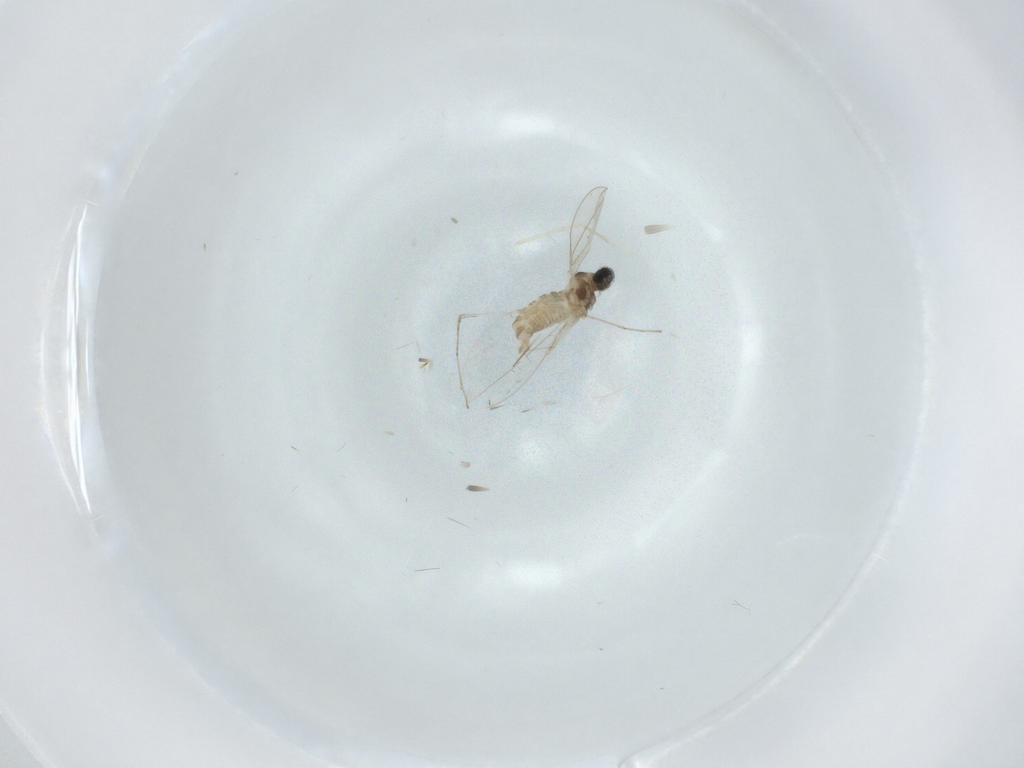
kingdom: Animalia
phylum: Arthropoda
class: Insecta
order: Diptera
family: Cecidomyiidae
